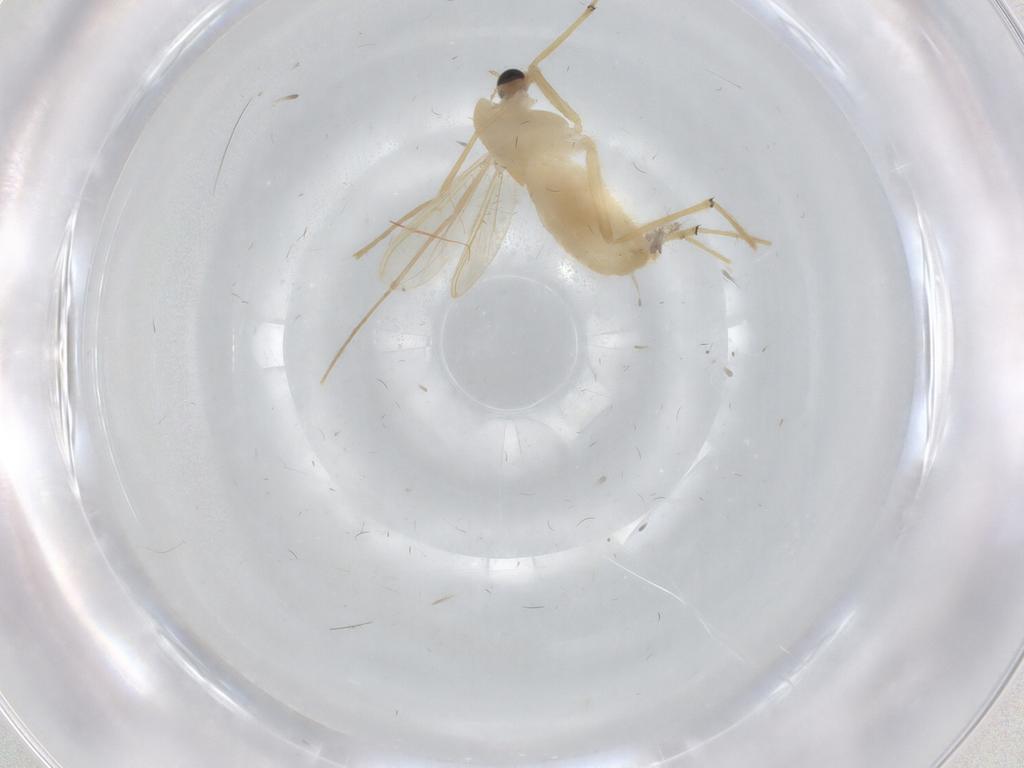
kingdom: Animalia
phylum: Arthropoda
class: Insecta
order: Diptera
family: Chironomidae
